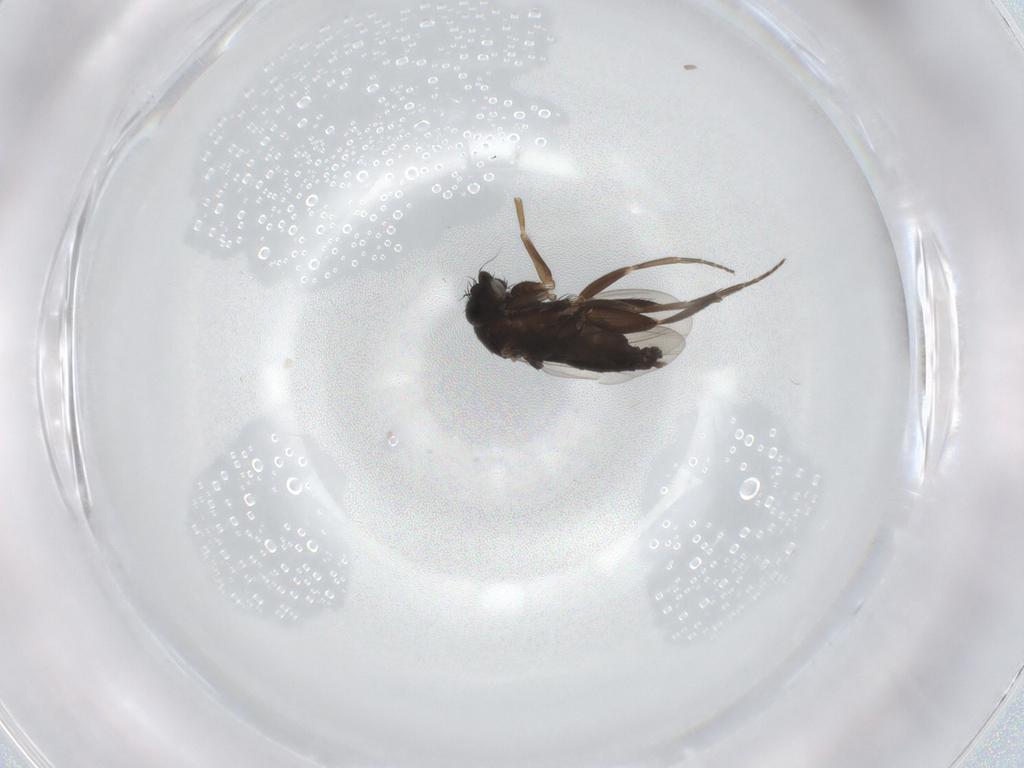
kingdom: Animalia
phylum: Arthropoda
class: Insecta
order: Diptera
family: Phoridae
